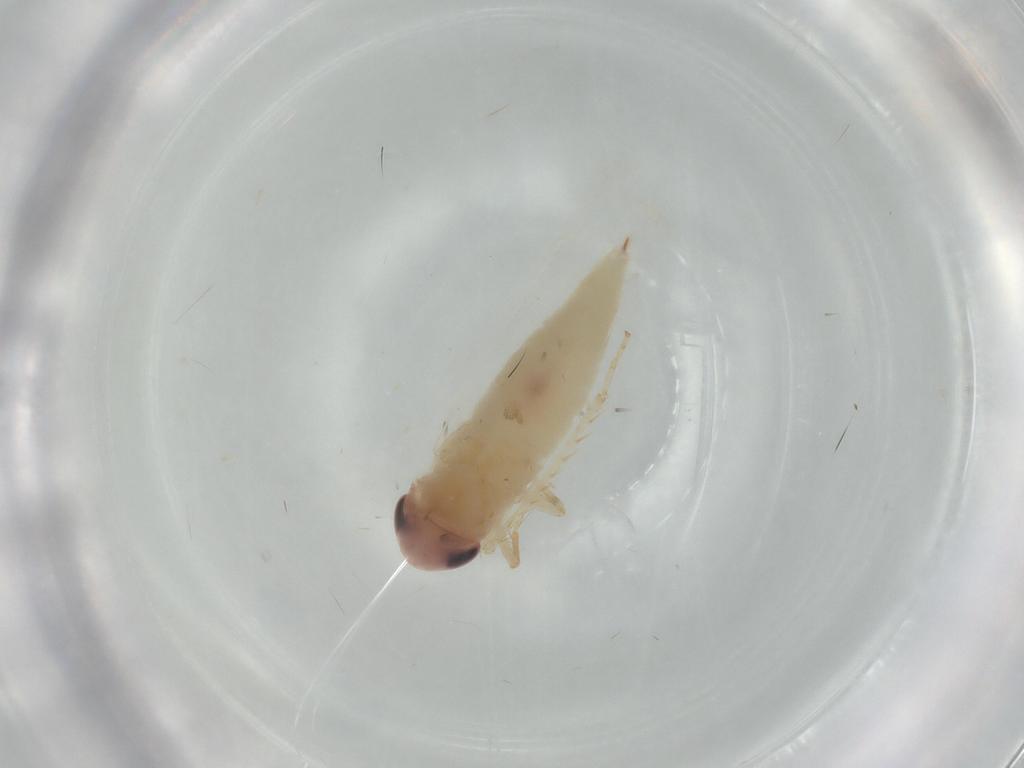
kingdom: Animalia
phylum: Arthropoda
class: Insecta
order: Hemiptera
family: Cicadellidae
